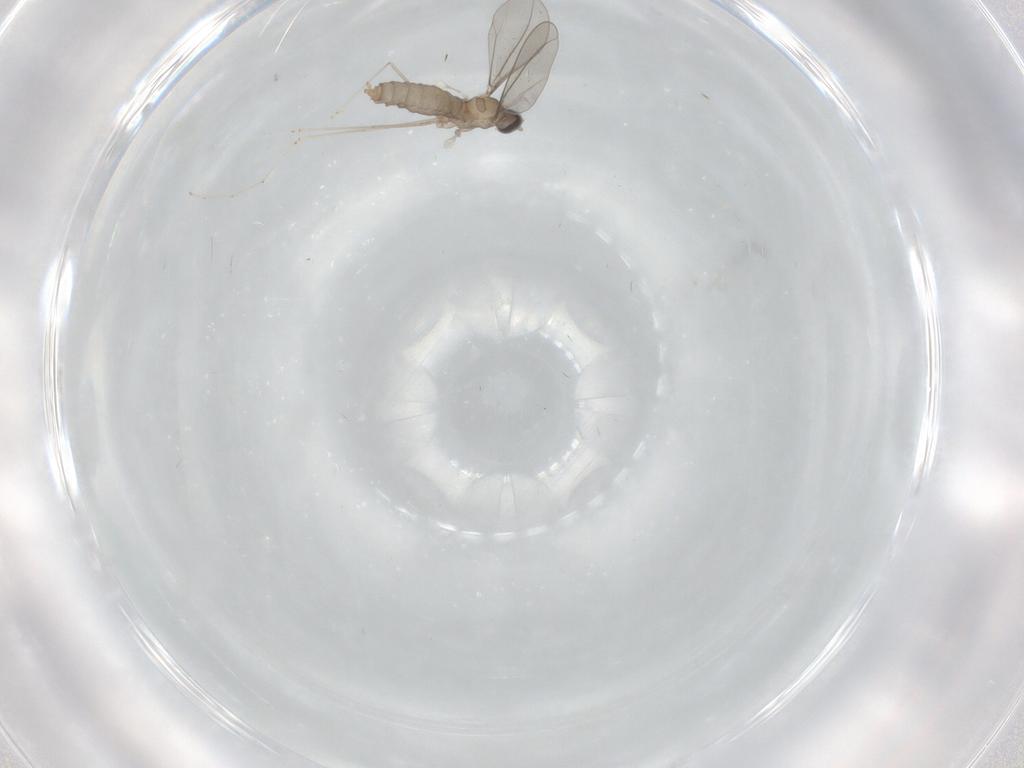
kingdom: Animalia
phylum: Arthropoda
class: Insecta
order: Diptera
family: Cecidomyiidae
